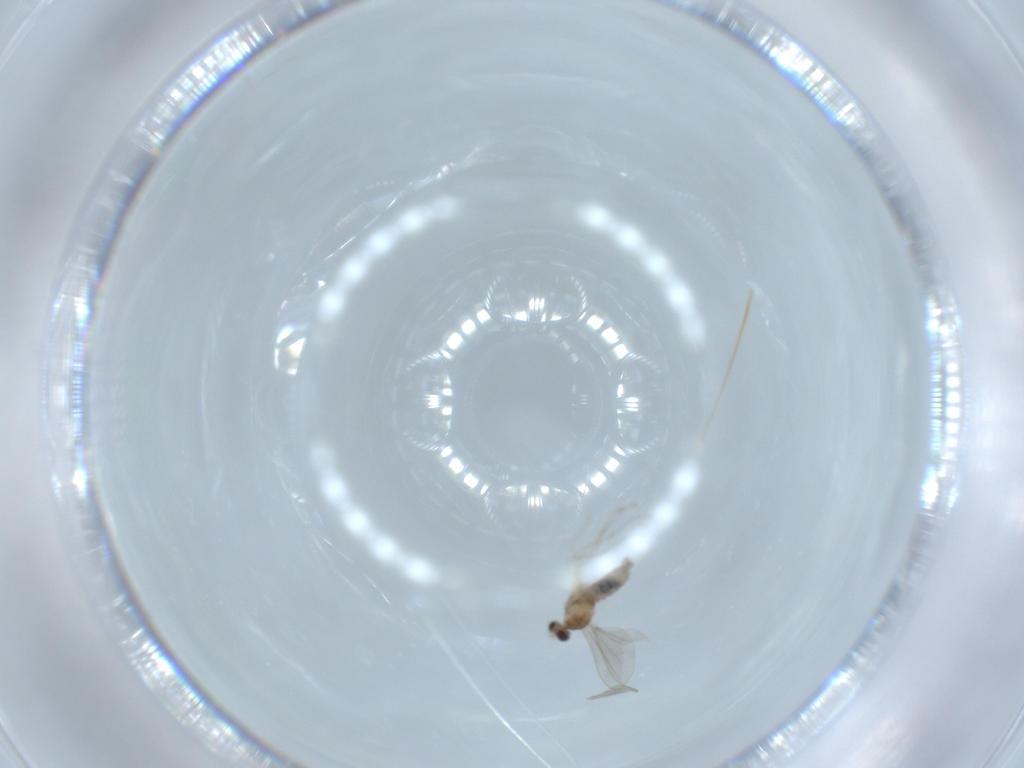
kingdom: Animalia
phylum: Arthropoda
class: Insecta
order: Diptera
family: Cecidomyiidae
